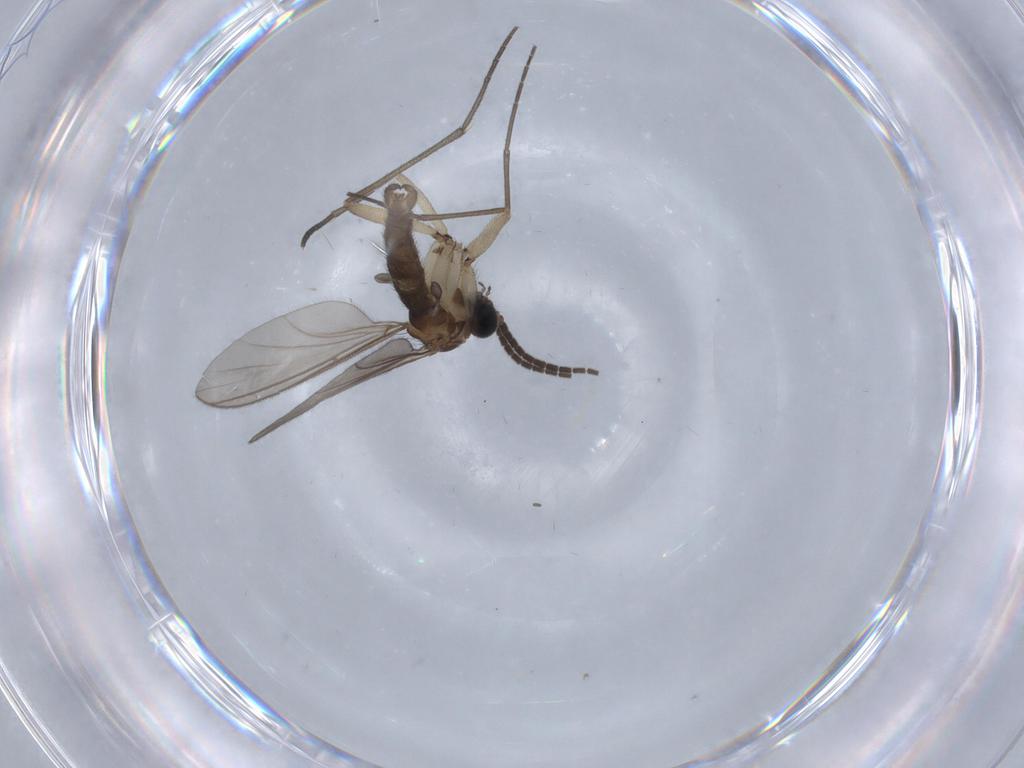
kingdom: Animalia
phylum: Arthropoda
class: Insecta
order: Diptera
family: Sciaridae
